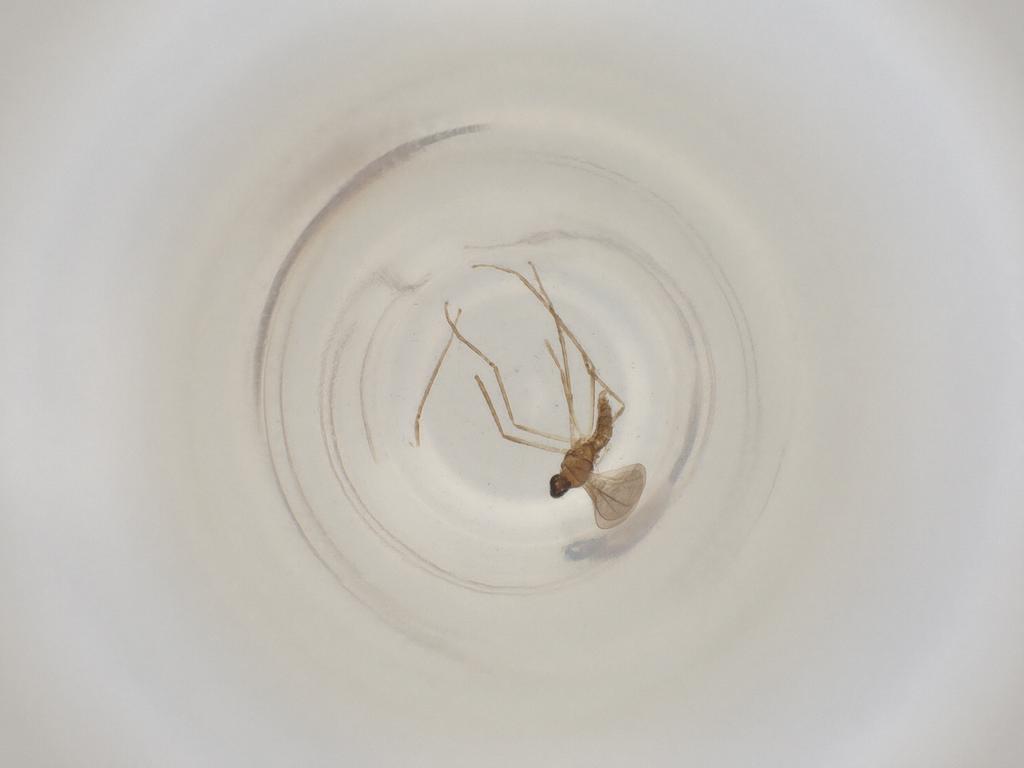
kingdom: Animalia
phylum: Arthropoda
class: Insecta
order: Diptera
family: Cecidomyiidae
